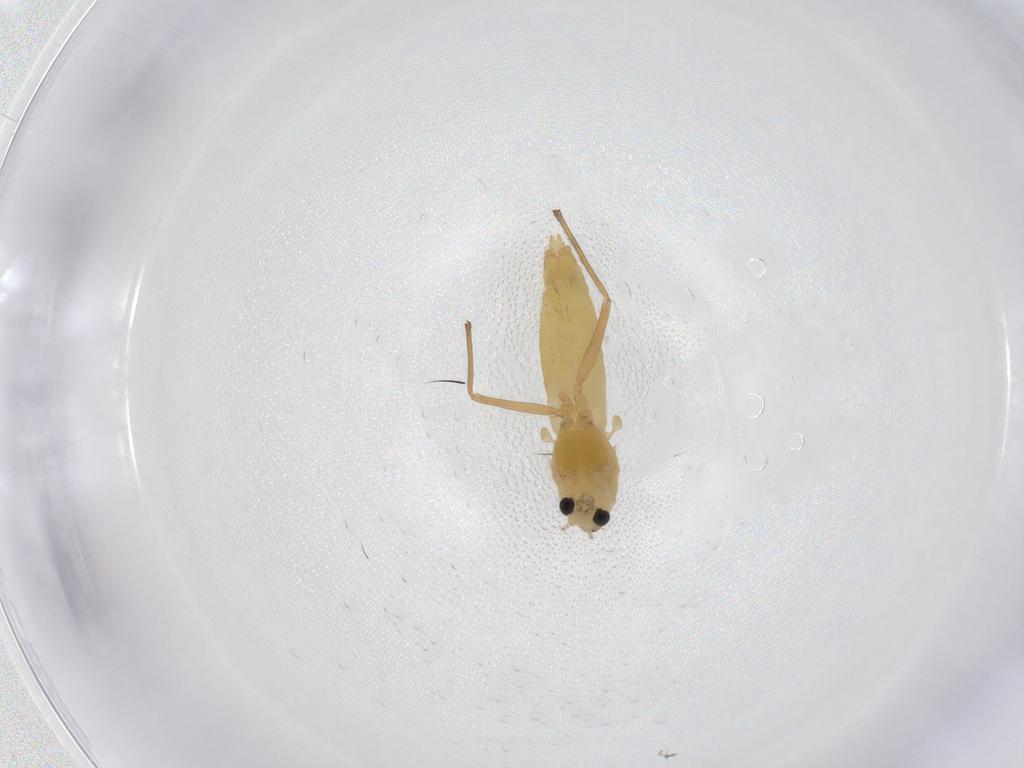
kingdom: Animalia
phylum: Arthropoda
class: Insecta
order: Diptera
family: Chironomidae
